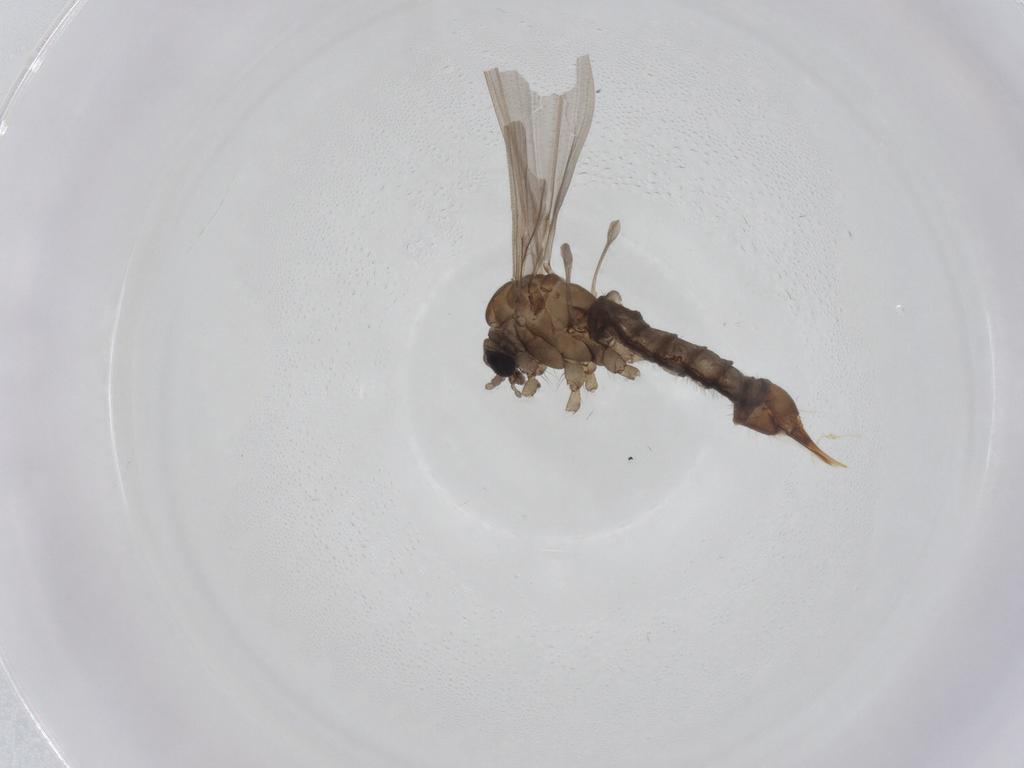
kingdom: Animalia
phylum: Arthropoda
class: Insecta
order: Diptera
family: Limoniidae
